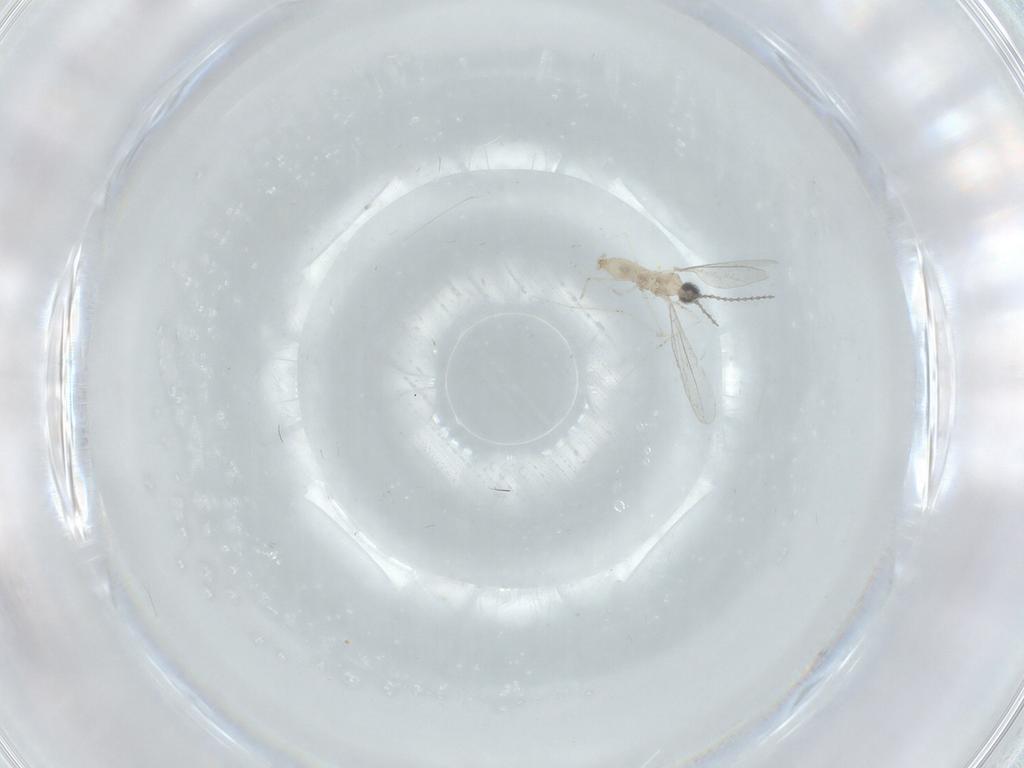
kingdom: Animalia
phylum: Arthropoda
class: Insecta
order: Diptera
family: Cecidomyiidae
